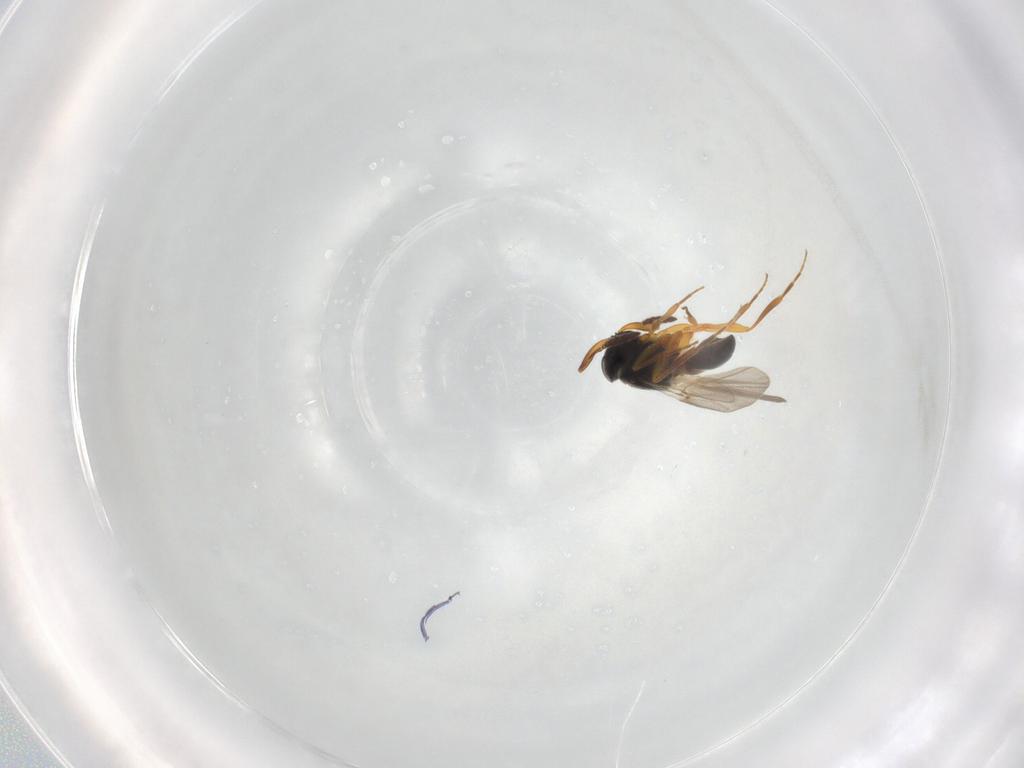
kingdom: Animalia
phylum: Arthropoda
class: Insecta
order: Hymenoptera
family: Platygastridae
